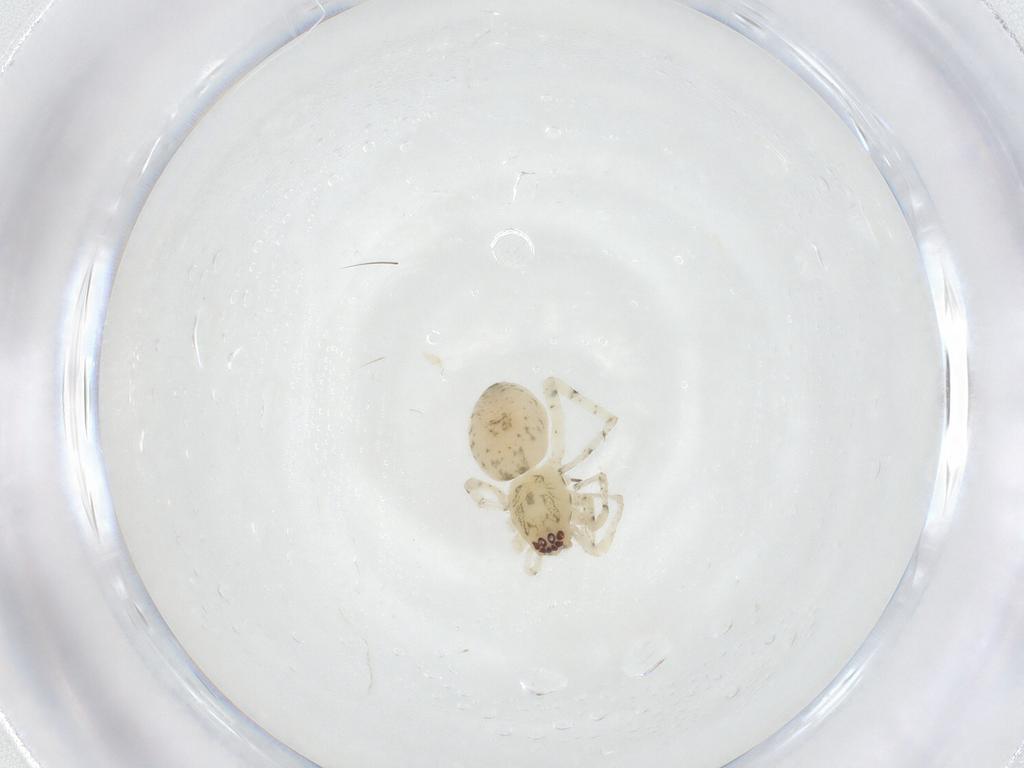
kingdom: Animalia
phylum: Arthropoda
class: Arachnida
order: Araneae
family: Anyphaenidae
